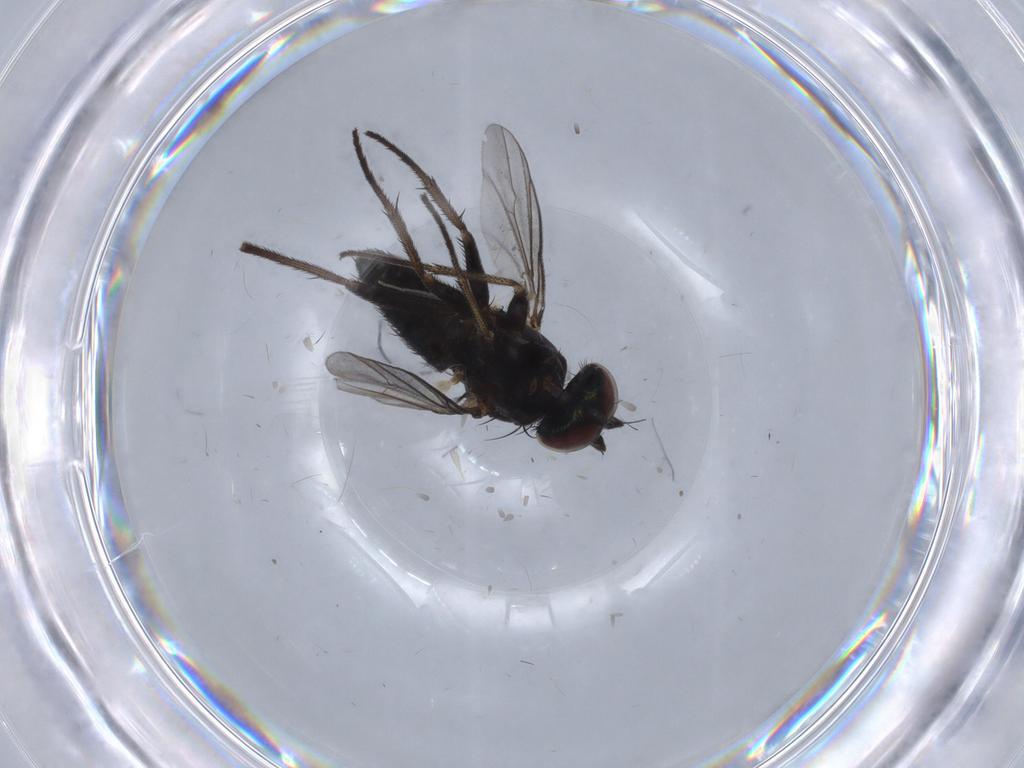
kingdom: Animalia
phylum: Arthropoda
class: Insecta
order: Diptera
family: Dolichopodidae
